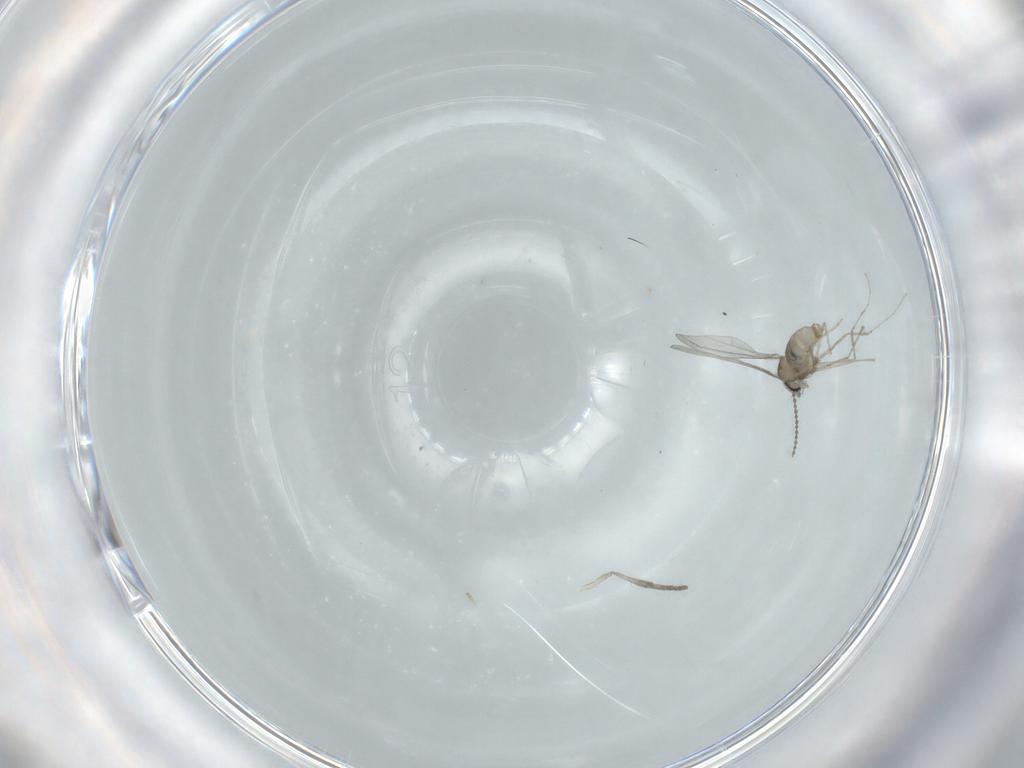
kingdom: Animalia
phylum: Arthropoda
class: Insecta
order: Diptera
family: Psychodidae
